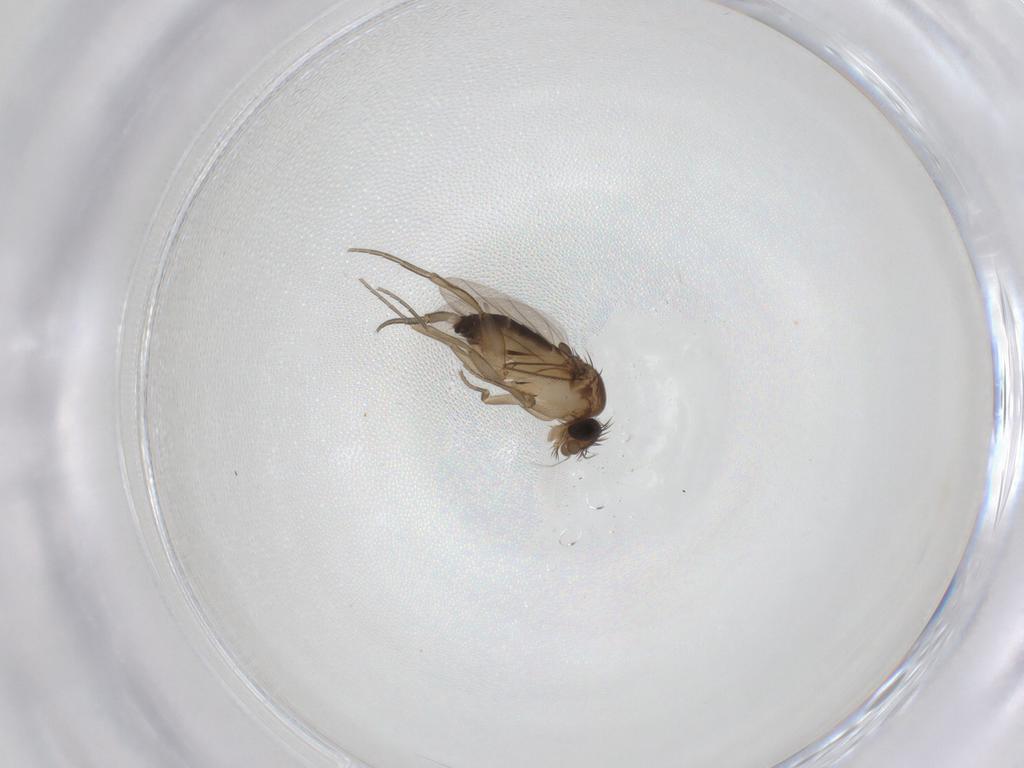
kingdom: Animalia
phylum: Arthropoda
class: Insecta
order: Diptera
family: Phoridae
